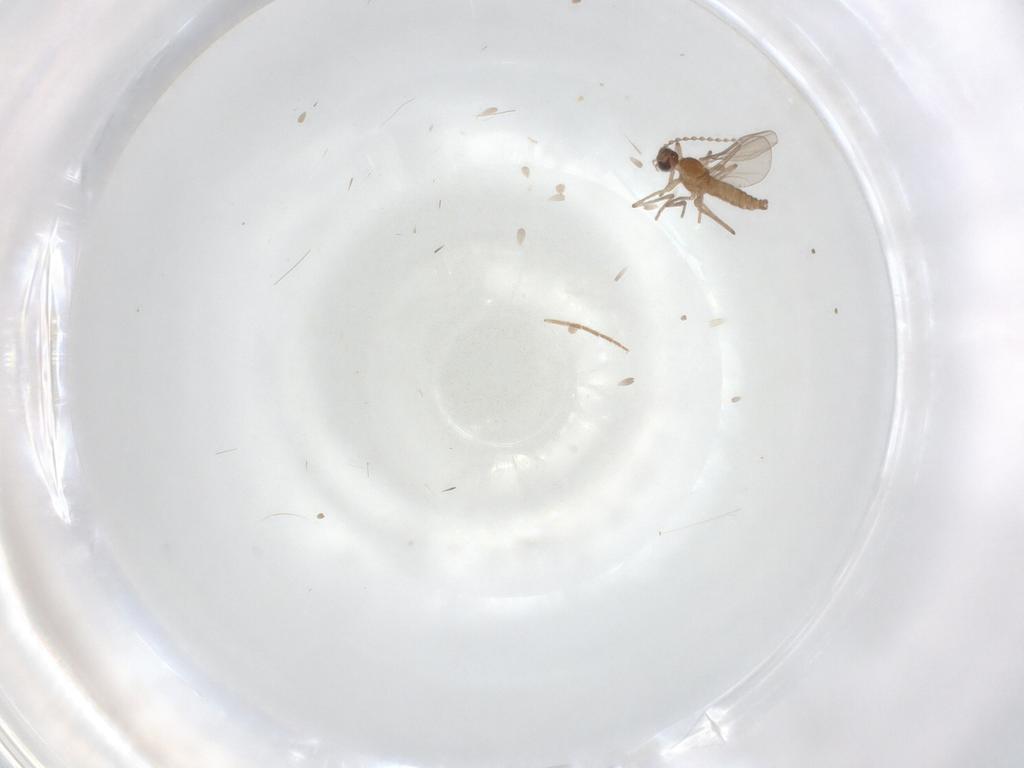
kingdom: Animalia
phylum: Arthropoda
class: Insecta
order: Diptera
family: Cecidomyiidae
